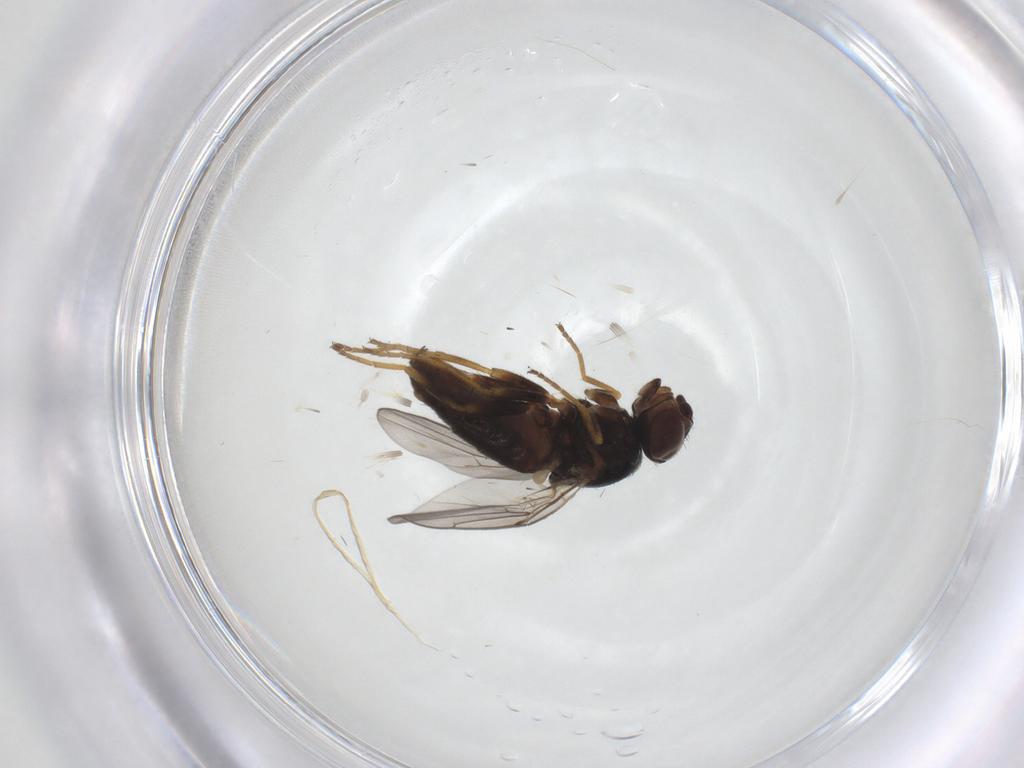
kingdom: Animalia
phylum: Arthropoda
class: Insecta
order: Diptera
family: Chloropidae
